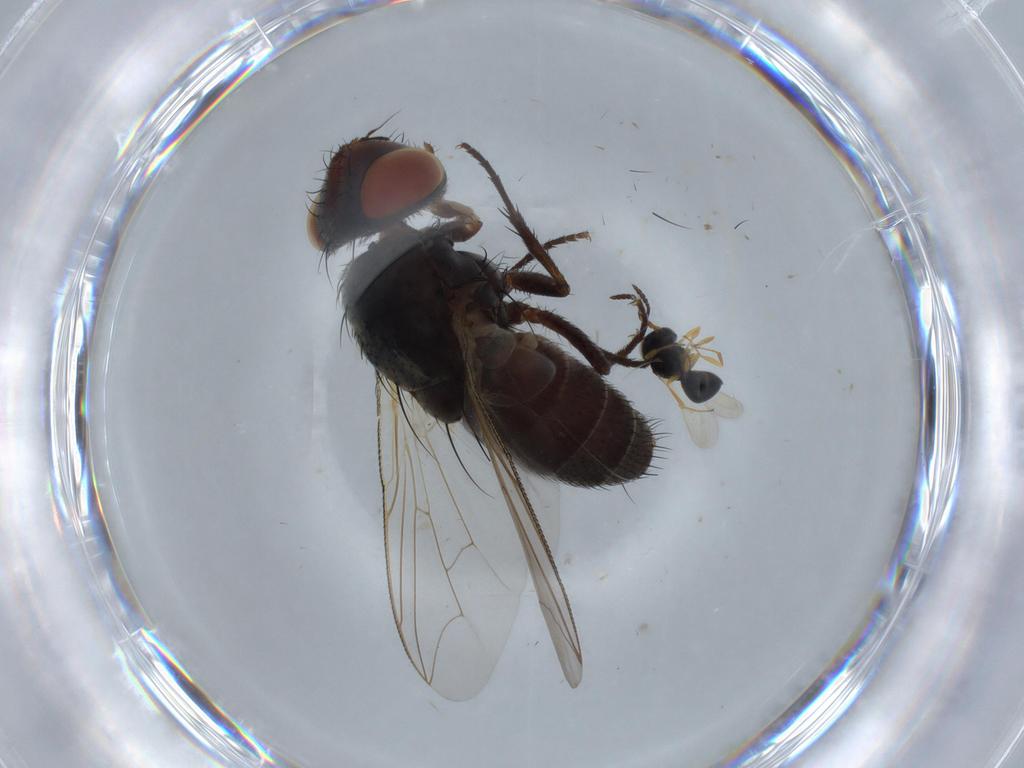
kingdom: Animalia
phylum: Arthropoda
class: Insecta
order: Diptera
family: Sarcophagidae
